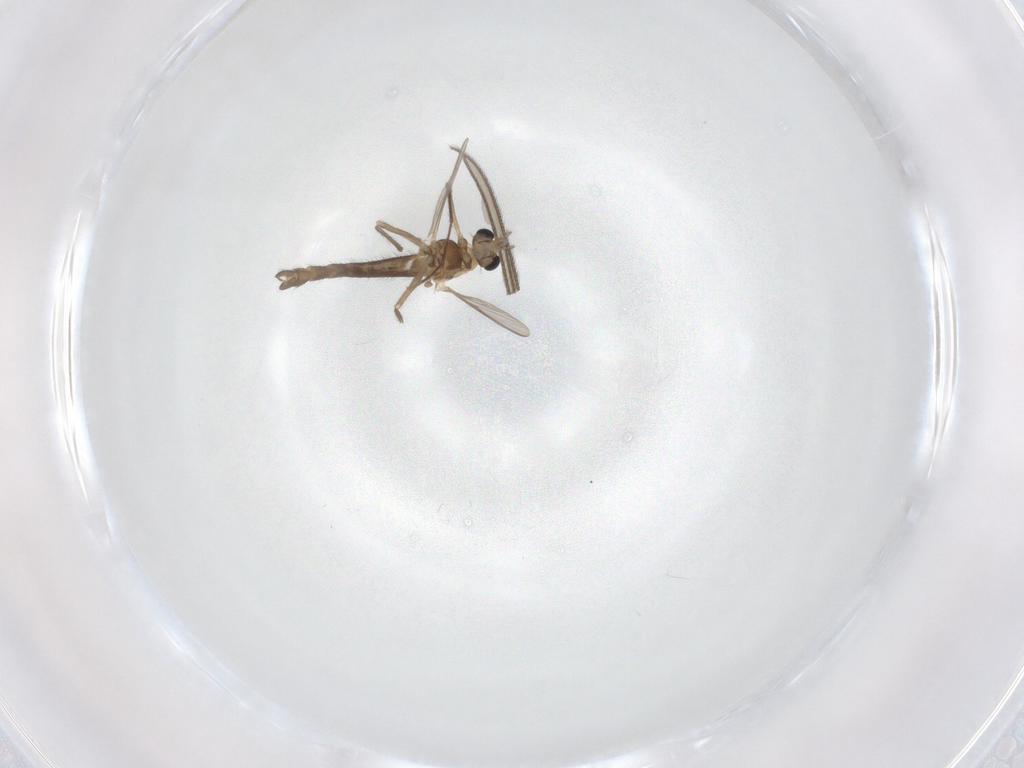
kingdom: Animalia
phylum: Arthropoda
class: Insecta
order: Diptera
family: Chironomidae
